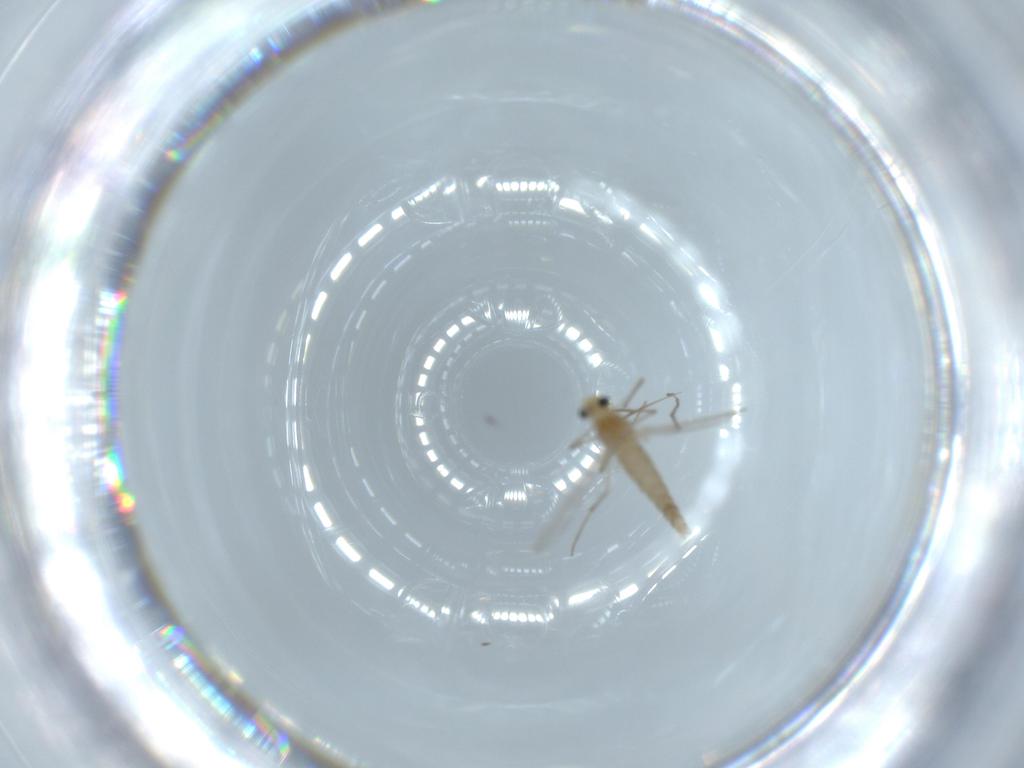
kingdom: Animalia
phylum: Arthropoda
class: Insecta
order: Diptera
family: Chironomidae
